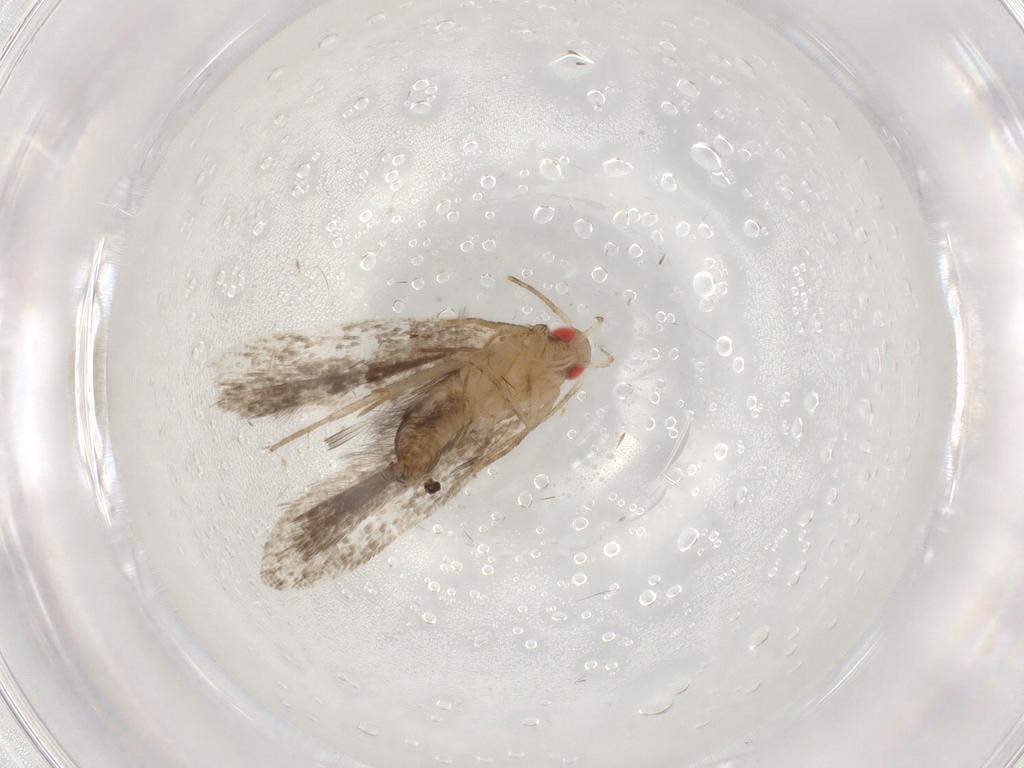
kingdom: Animalia
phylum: Arthropoda
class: Insecta
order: Lepidoptera
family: Gelechiidae
